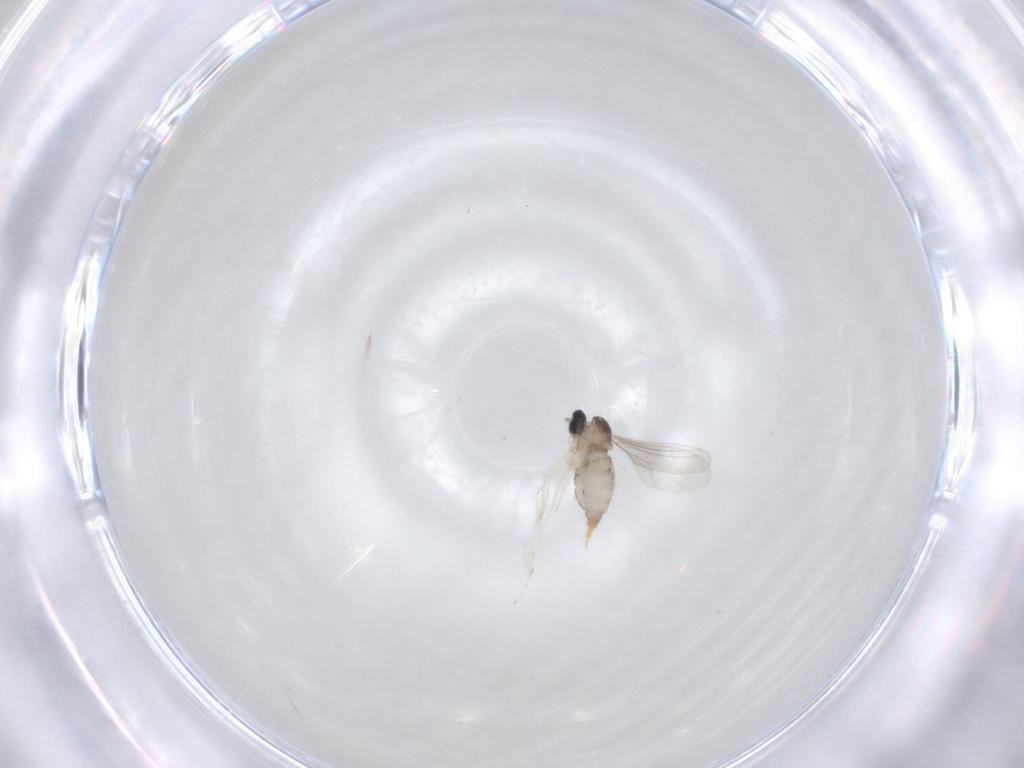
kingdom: Animalia
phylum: Arthropoda
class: Insecta
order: Diptera
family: Cecidomyiidae
